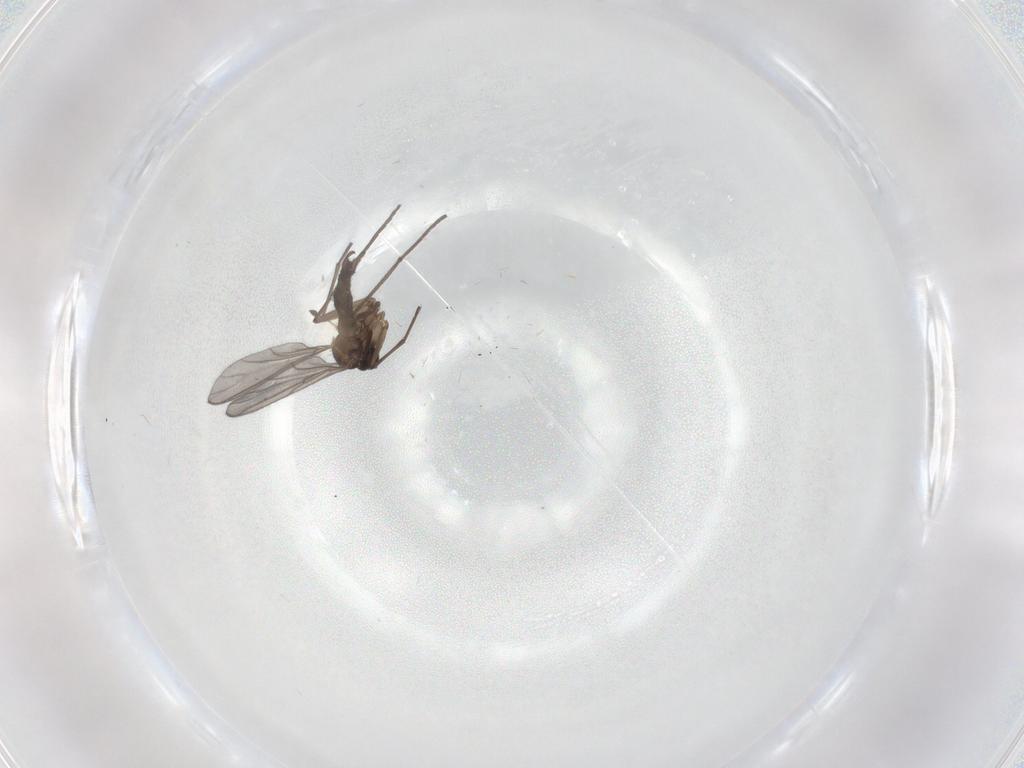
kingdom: Animalia
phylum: Arthropoda
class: Insecta
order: Diptera
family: Sciaridae
